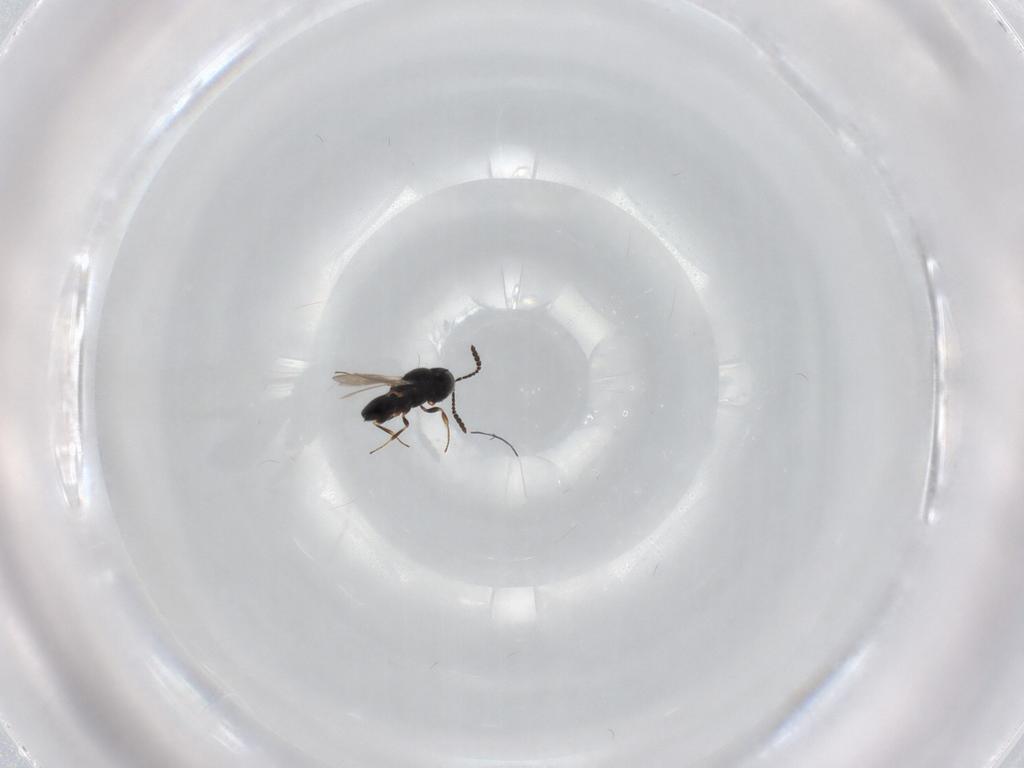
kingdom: Animalia
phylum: Arthropoda
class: Insecta
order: Hymenoptera
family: Scelionidae
